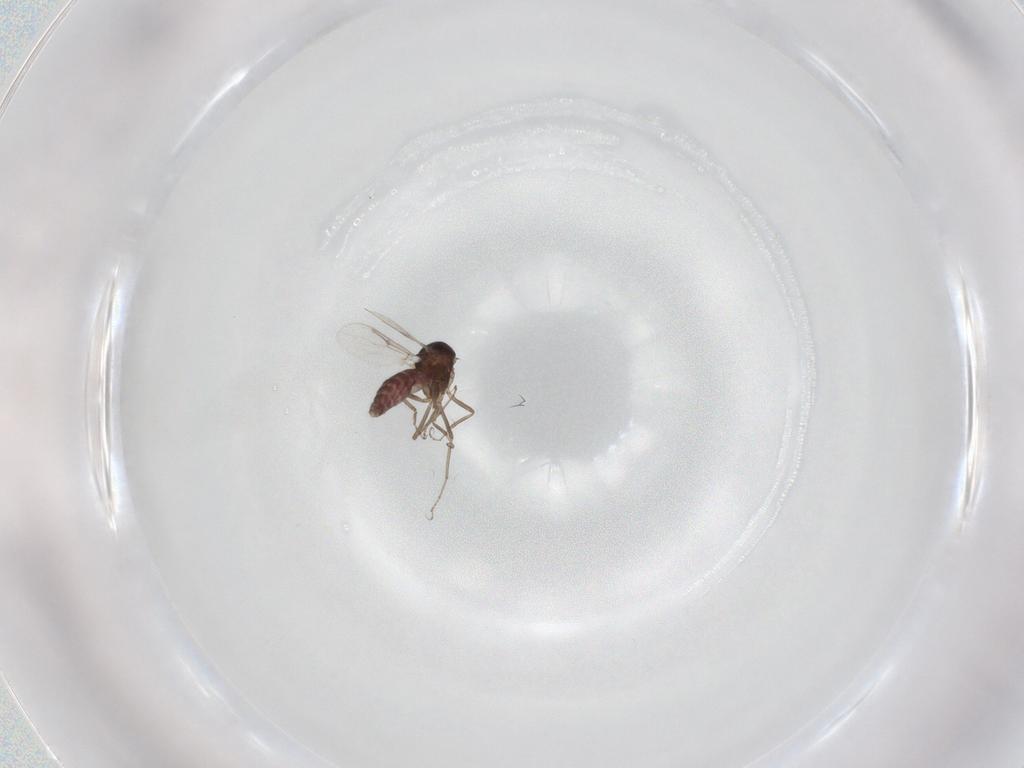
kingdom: Animalia
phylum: Arthropoda
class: Insecta
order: Diptera
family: Ceratopogonidae
